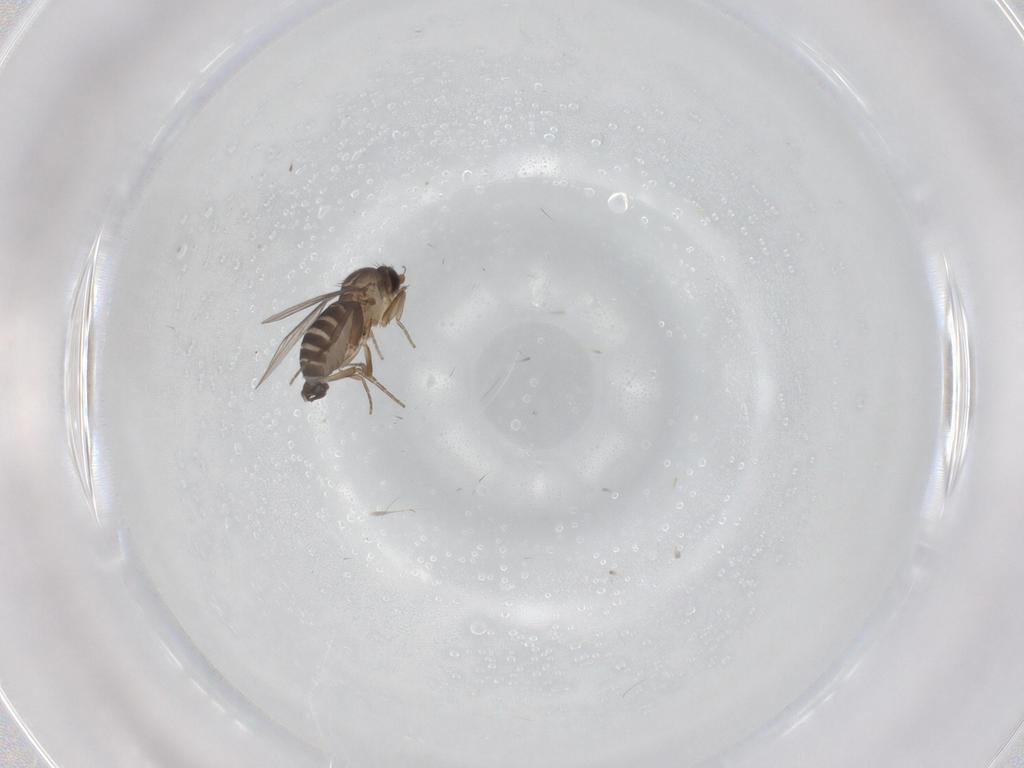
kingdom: Animalia
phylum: Arthropoda
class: Insecta
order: Diptera
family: Phoridae
